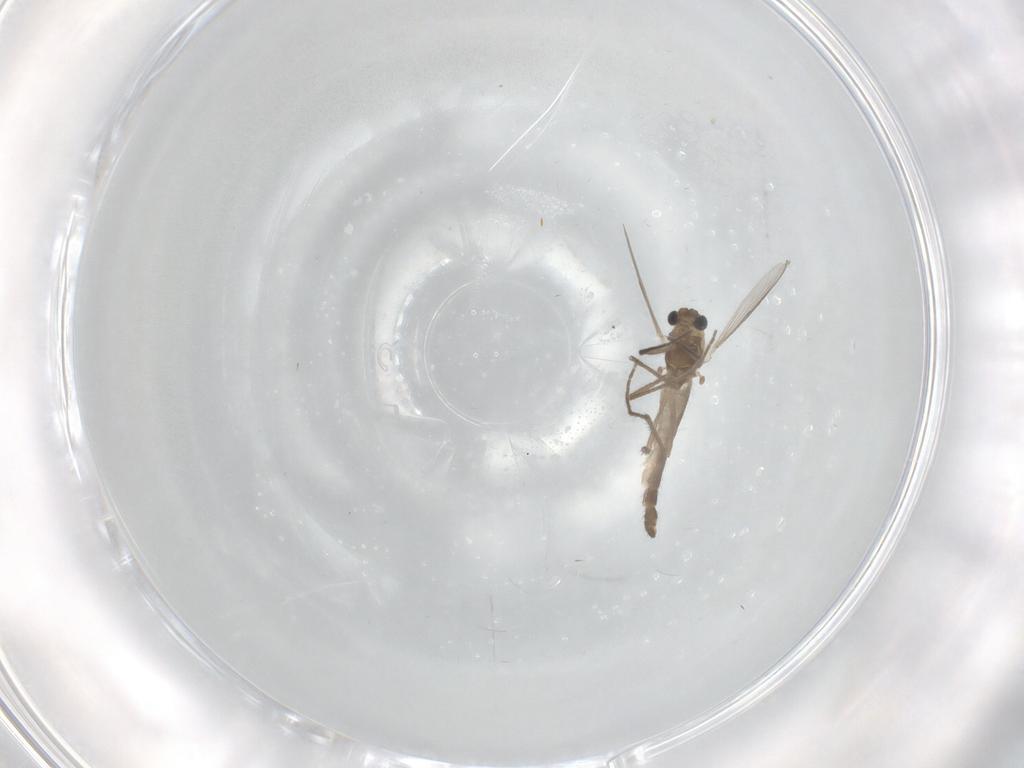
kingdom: Animalia
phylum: Arthropoda
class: Insecta
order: Diptera
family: Chironomidae
